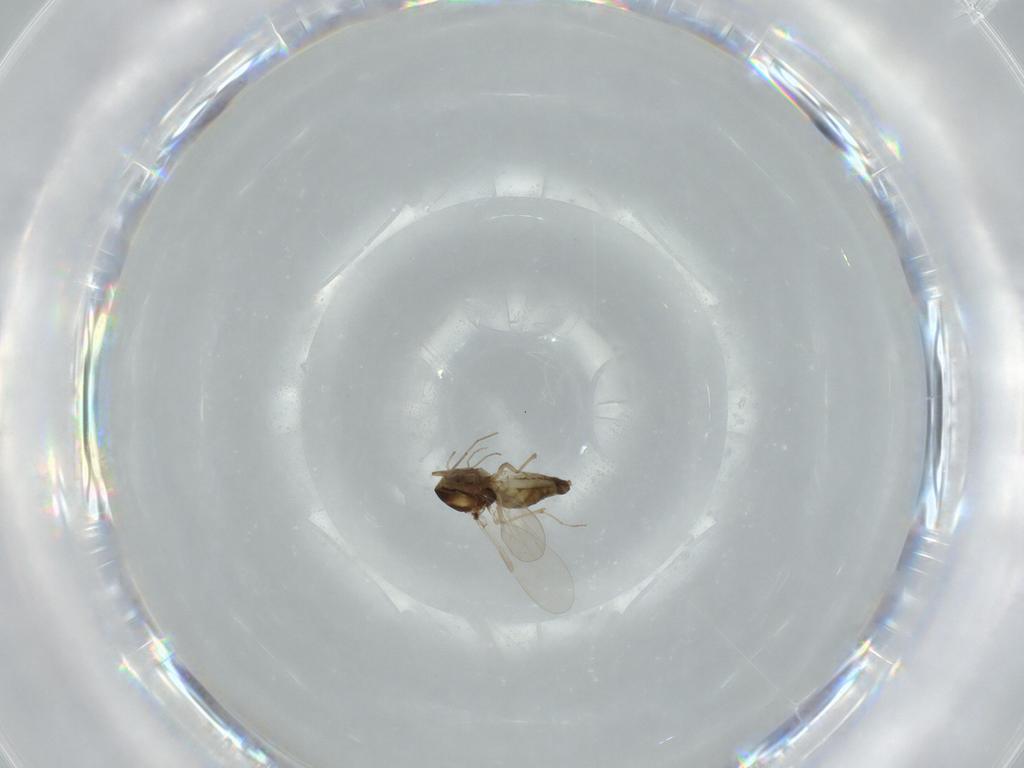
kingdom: Animalia
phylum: Arthropoda
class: Insecta
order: Diptera
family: Chironomidae
